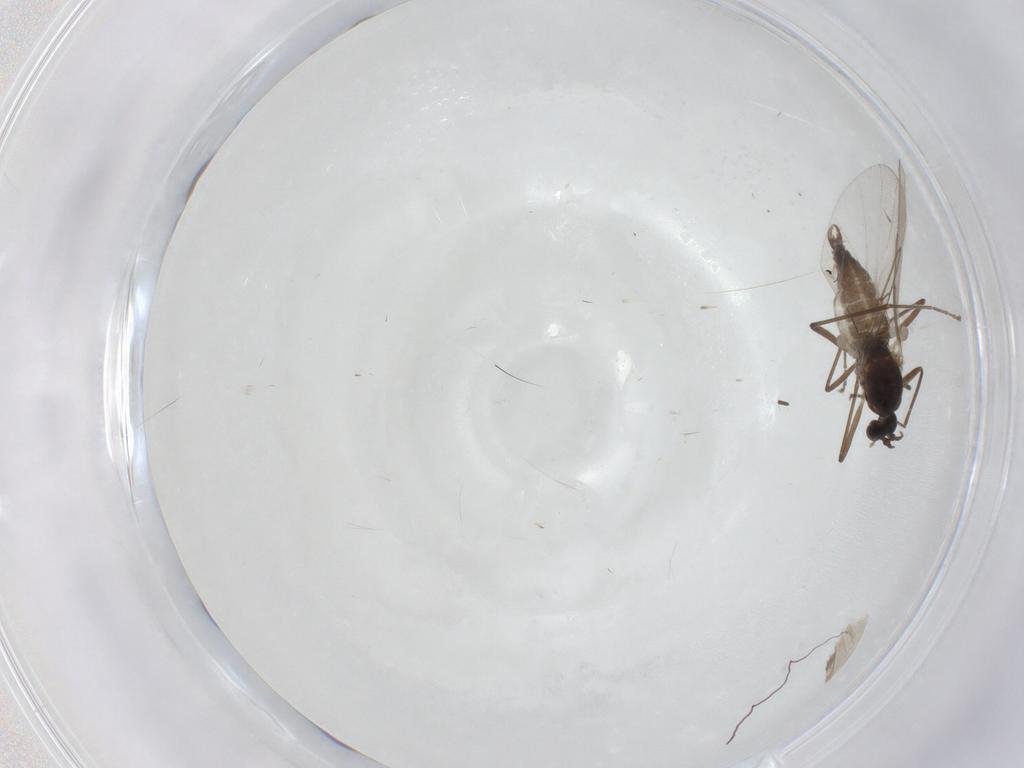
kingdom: Animalia
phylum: Arthropoda
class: Insecta
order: Diptera
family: Cecidomyiidae
